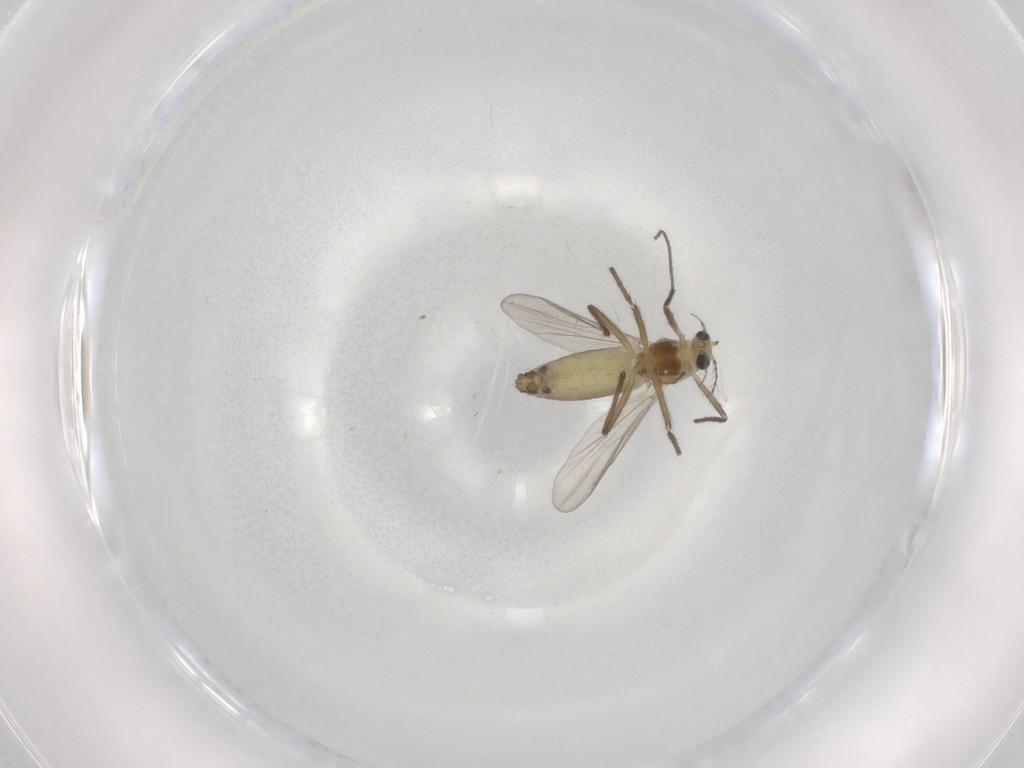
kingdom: Animalia
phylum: Arthropoda
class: Insecta
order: Diptera
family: Chironomidae
